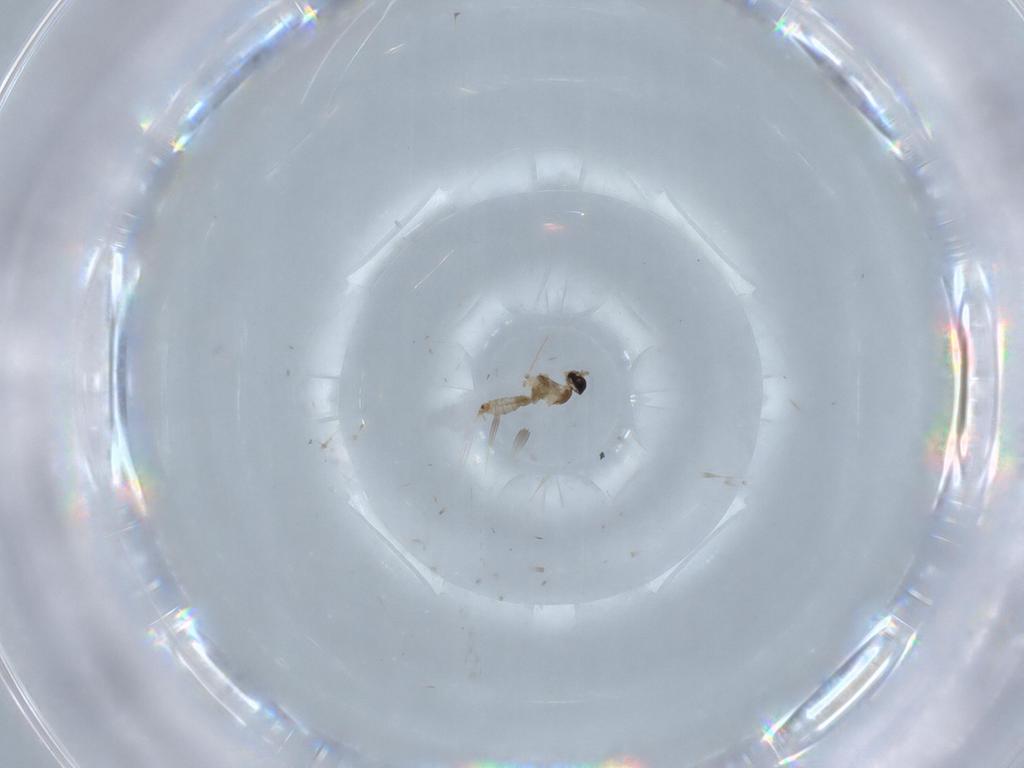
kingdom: Animalia
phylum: Arthropoda
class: Insecta
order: Diptera
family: Cecidomyiidae
